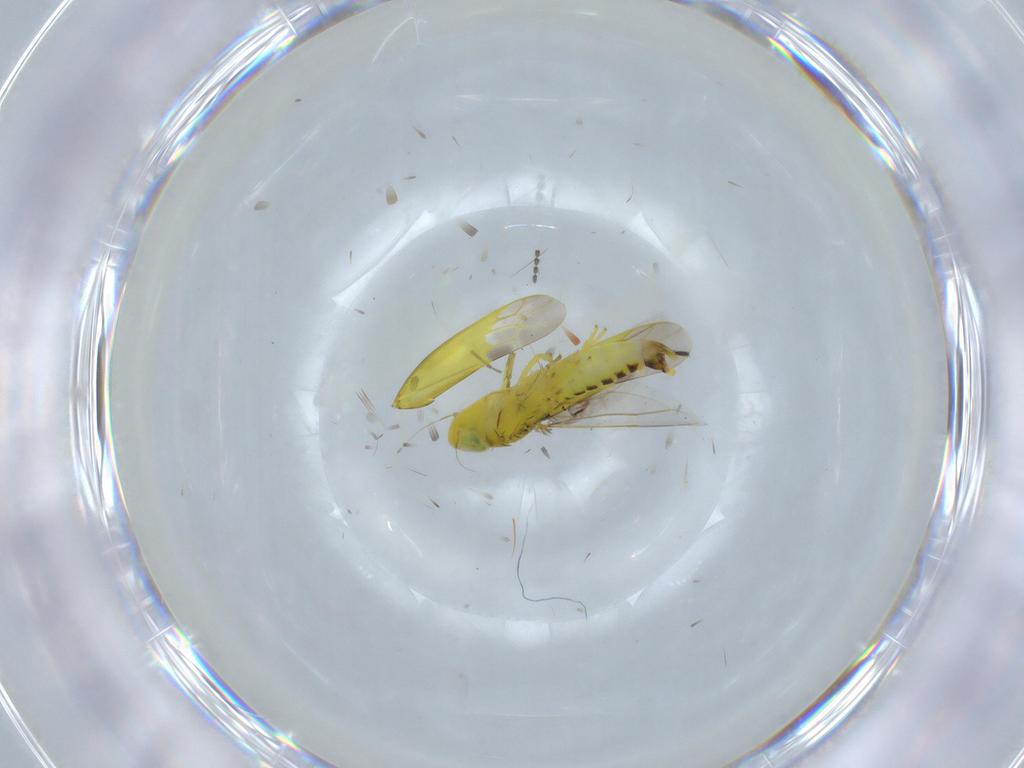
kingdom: Animalia
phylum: Arthropoda
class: Insecta
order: Hemiptera
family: Cicadellidae
